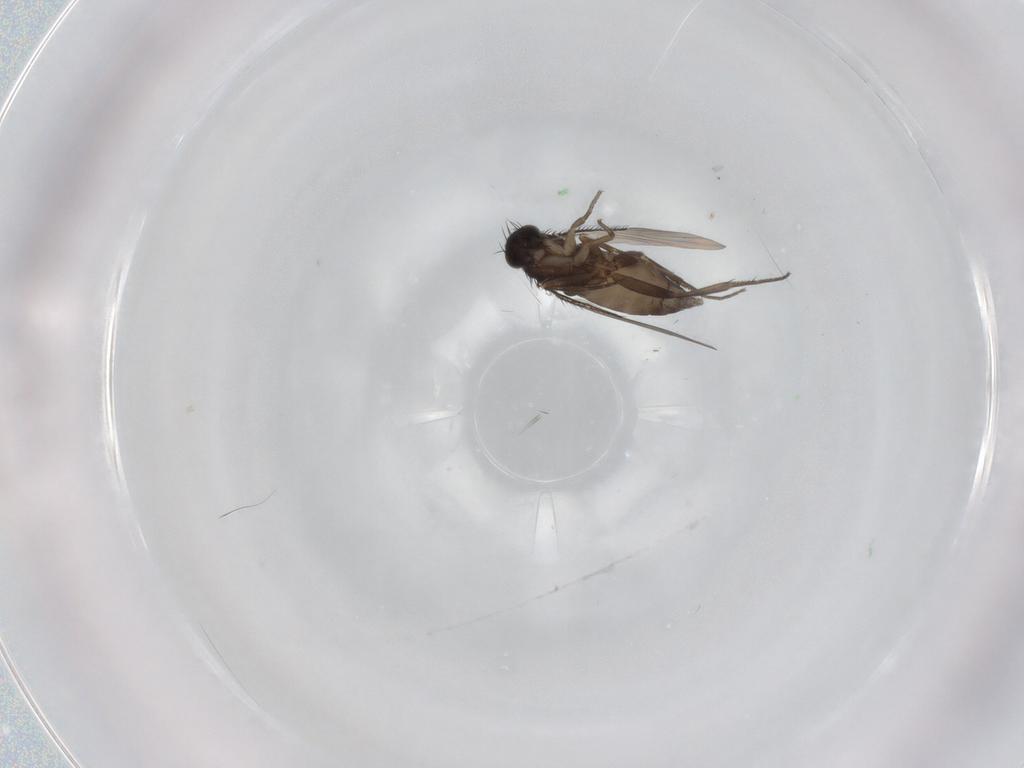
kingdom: Animalia
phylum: Arthropoda
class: Insecta
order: Diptera
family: Phoridae
